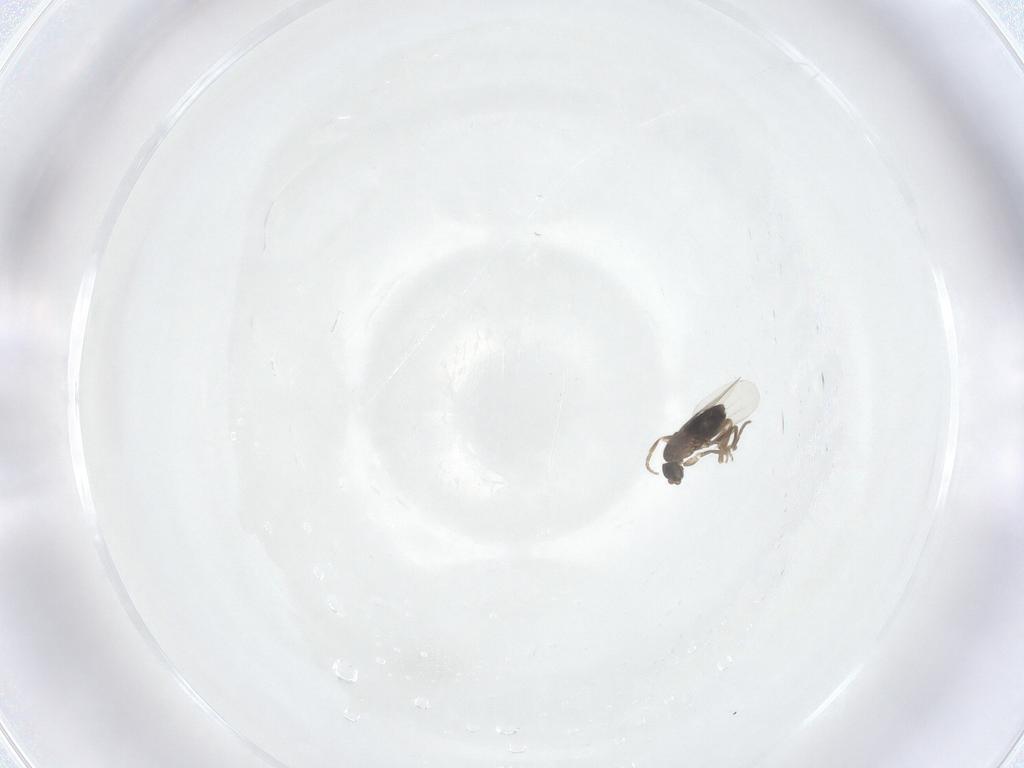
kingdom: Animalia
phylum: Arthropoda
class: Insecta
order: Diptera
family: Phoridae
